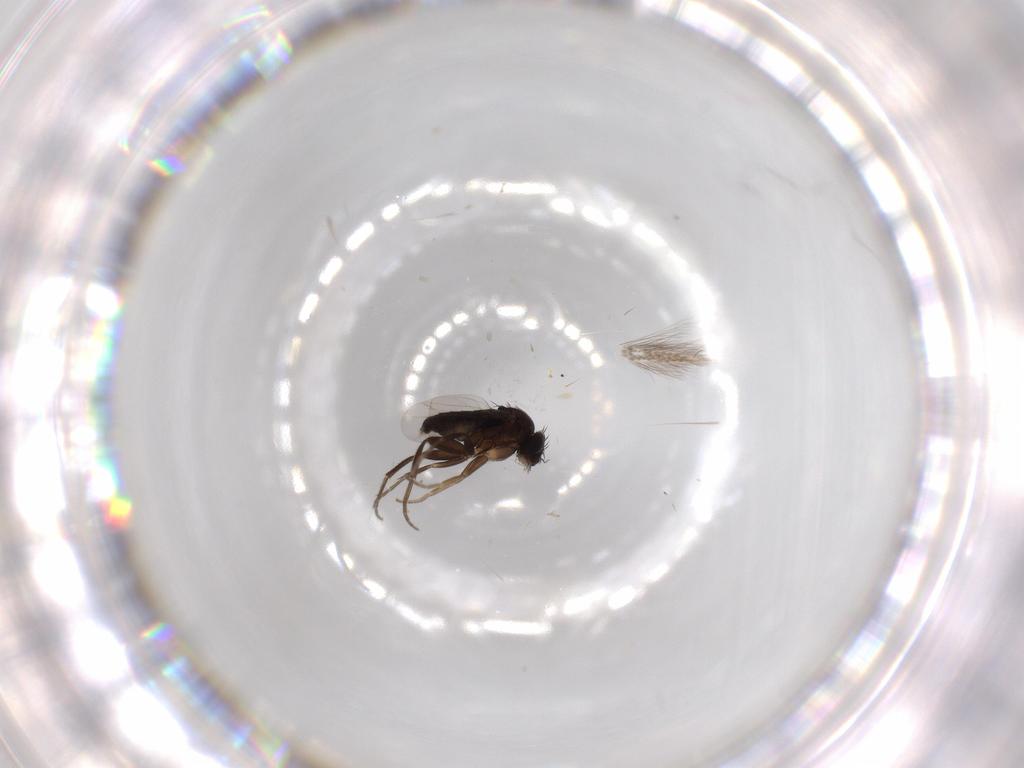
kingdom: Animalia
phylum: Arthropoda
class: Insecta
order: Diptera
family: Phoridae
